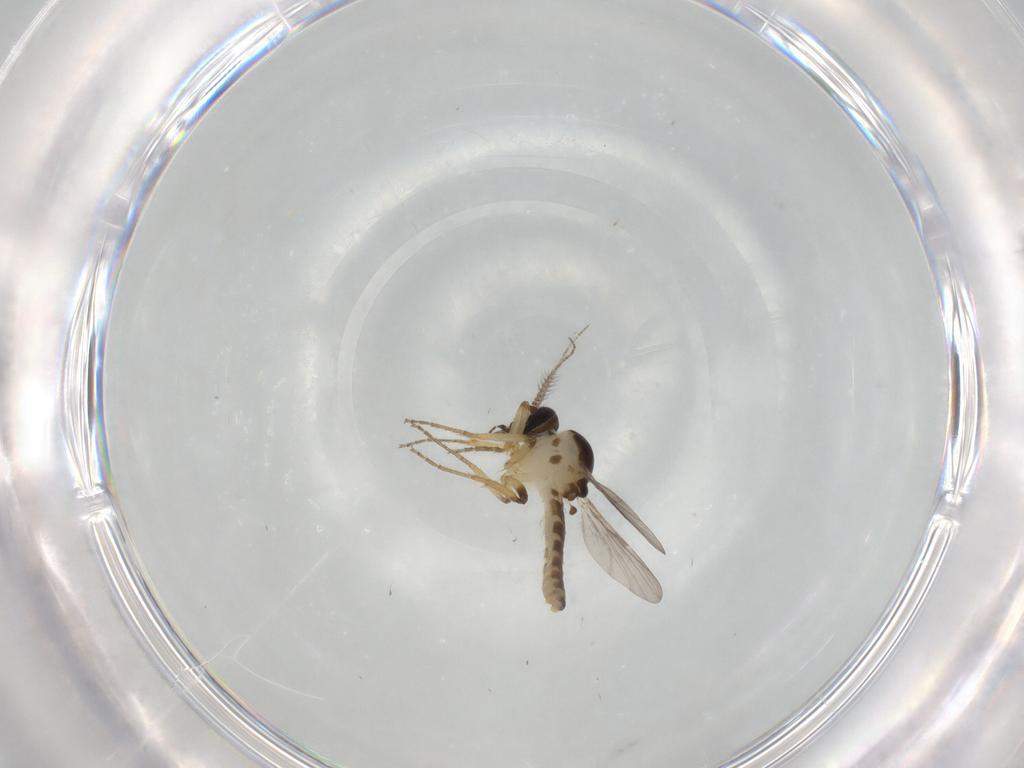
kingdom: Animalia
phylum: Arthropoda
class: Insecta
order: Diptera
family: Ceratopogonidae
